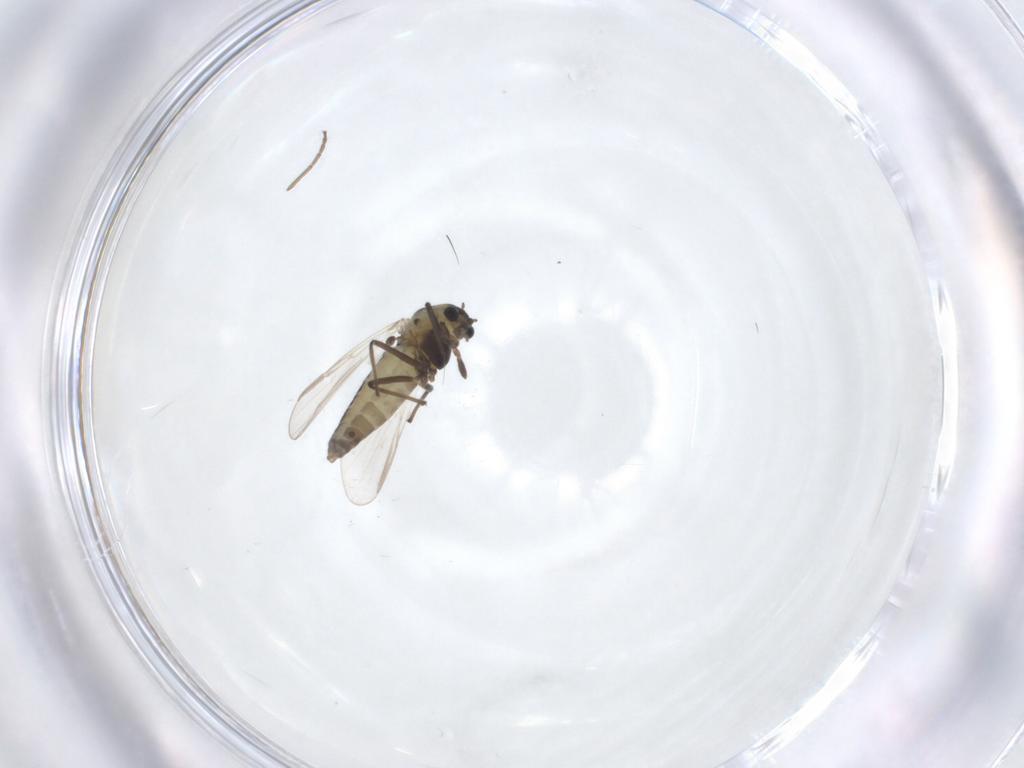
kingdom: Animalia
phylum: Arthropoda
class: Insecta
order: Diptera
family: Chironomidae
